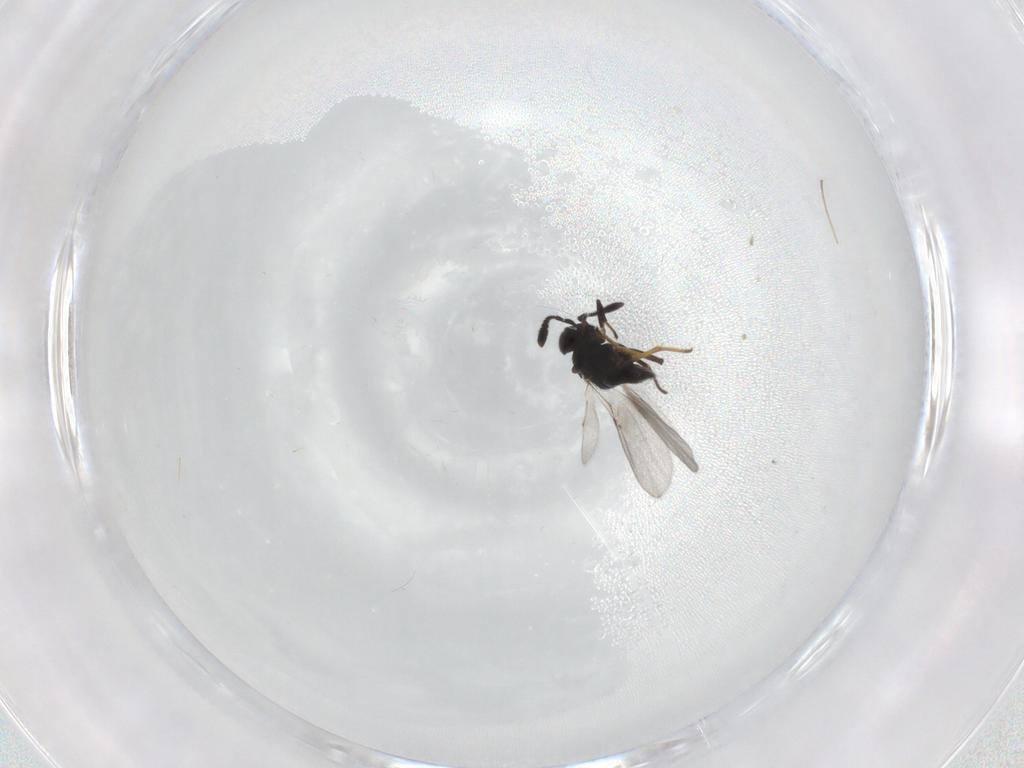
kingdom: Animalia
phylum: Arthropoda
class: Insecta
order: Hymenoptera
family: Encyrtidae
